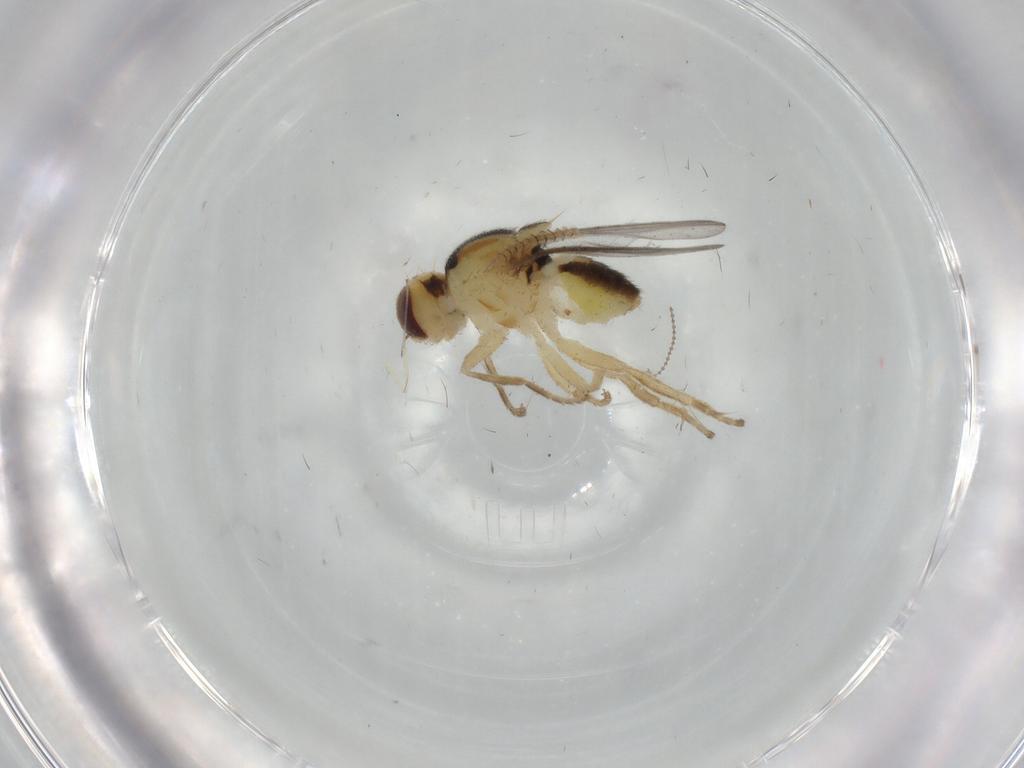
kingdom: Animalia
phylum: Arthropoda
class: Insecta
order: Diptera
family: Chloropidae
